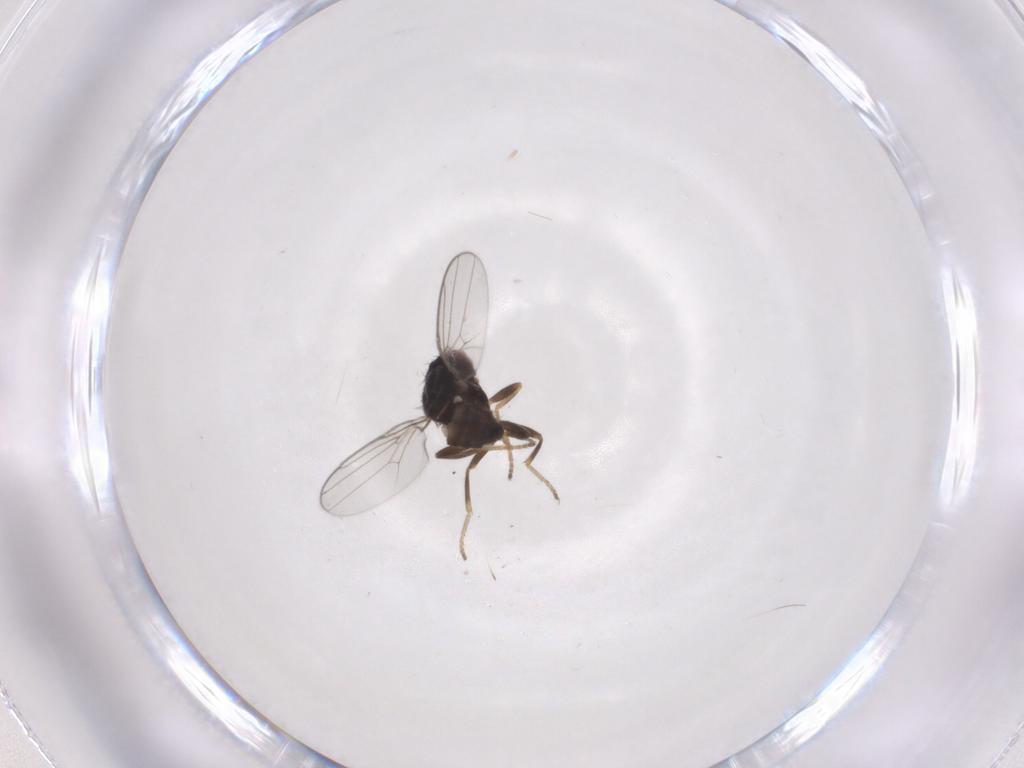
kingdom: Animalia
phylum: Arthropoda
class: Insecta
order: Diptera
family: Chloropidae
